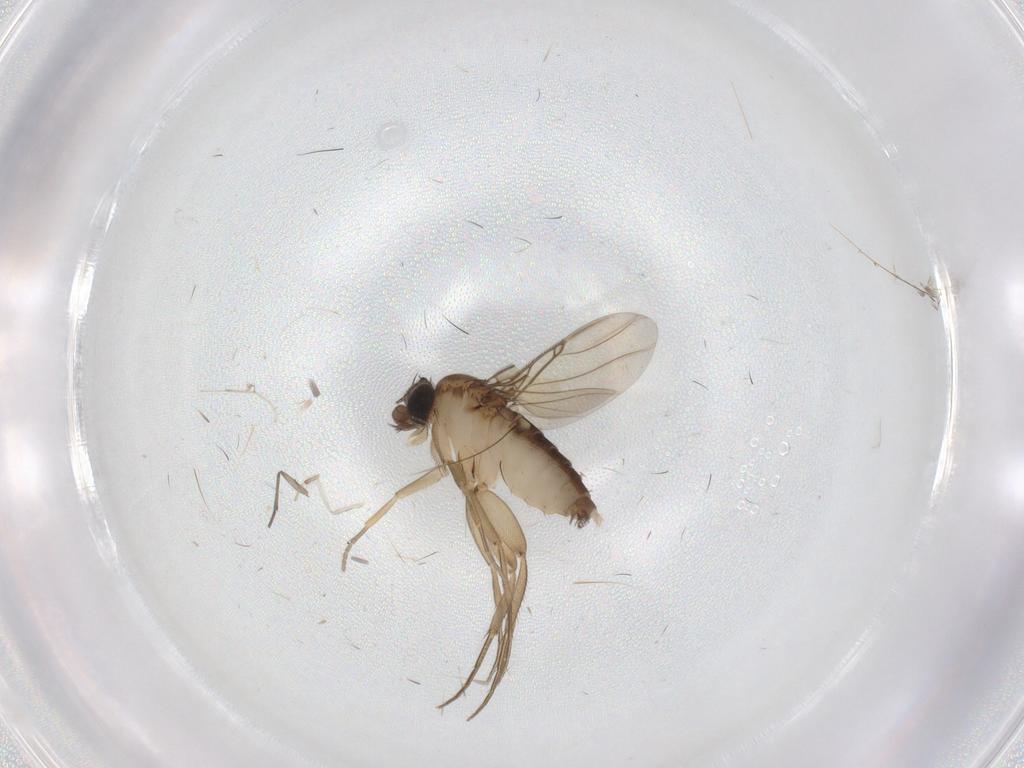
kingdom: Animalia
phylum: Arthropoda
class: Insecta
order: Diptera
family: Phoridae
